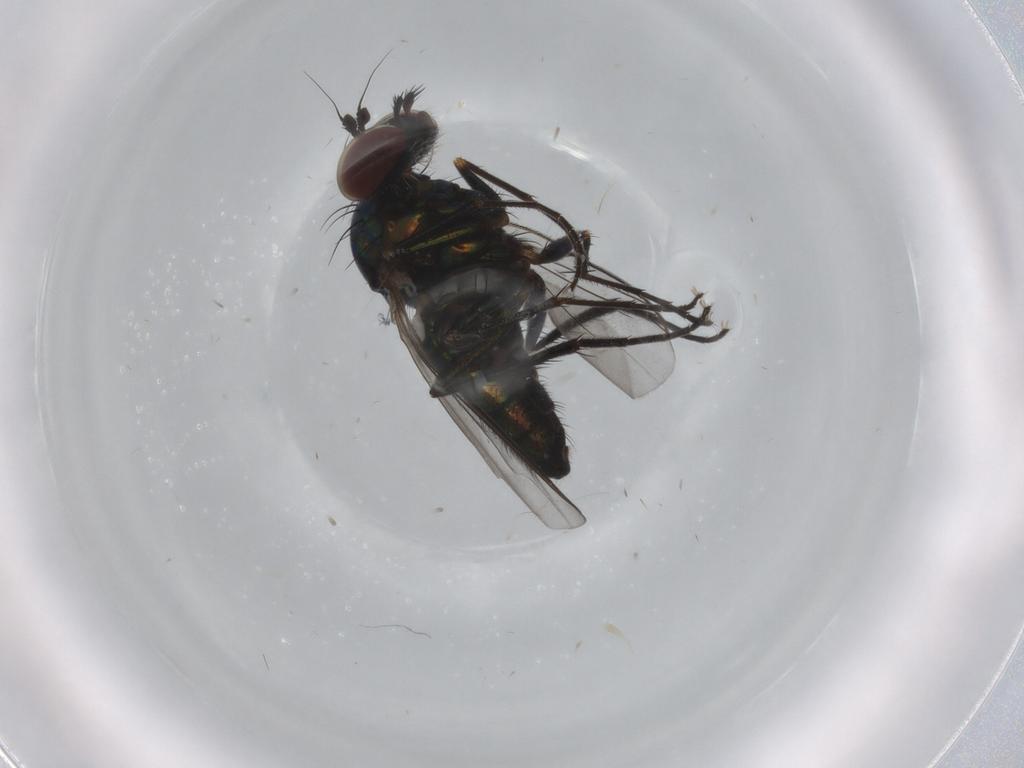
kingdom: Animalia
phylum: Arthropoda
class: Insecta
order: Diptera
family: Dolichopodidae
